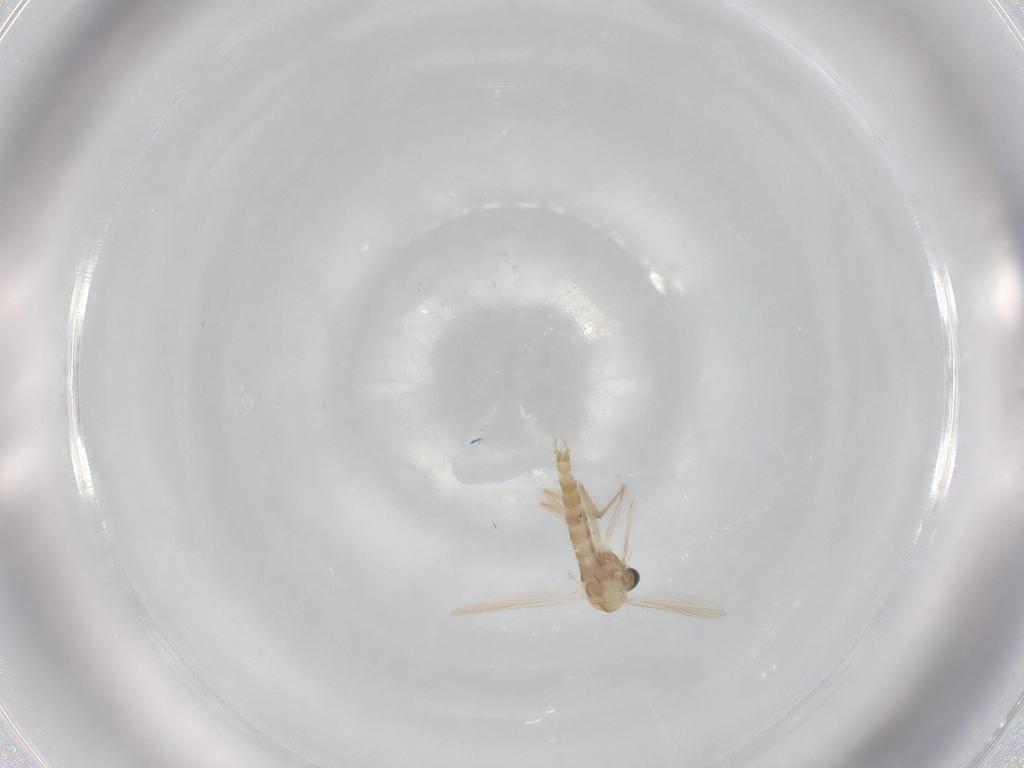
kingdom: Animalia
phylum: Arthropoda
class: Insecta
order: Diptera
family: Chironomidae
